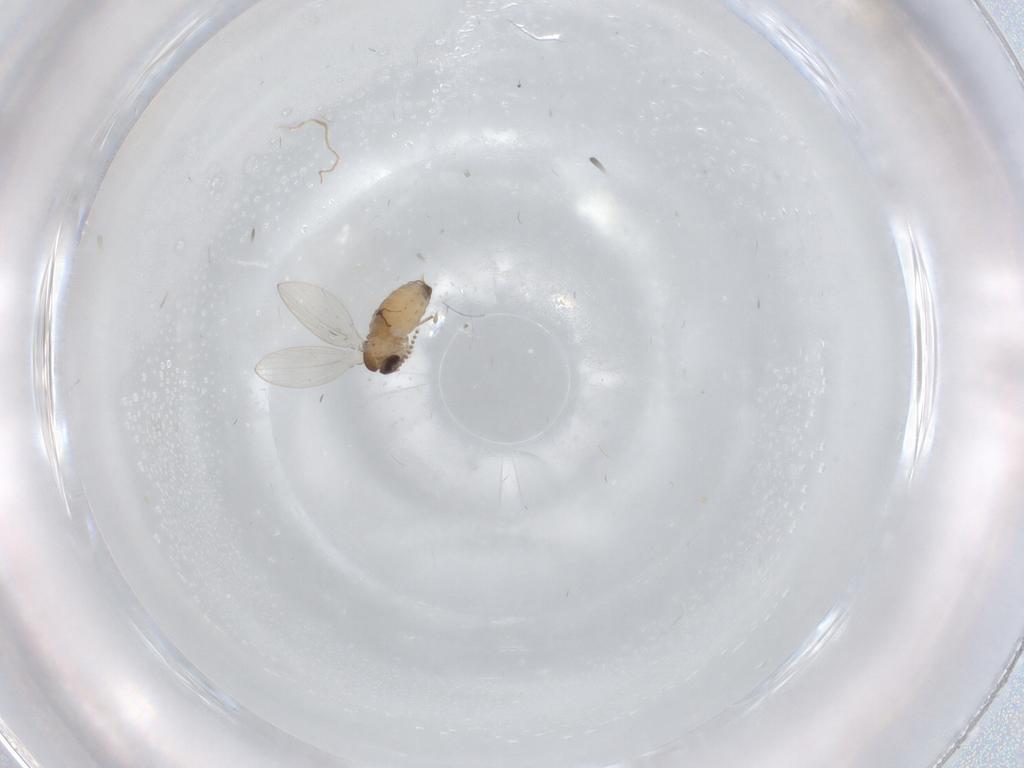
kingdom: Animalia
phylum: Arthropoda
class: Insecta
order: Diptera
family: Psychodidae
